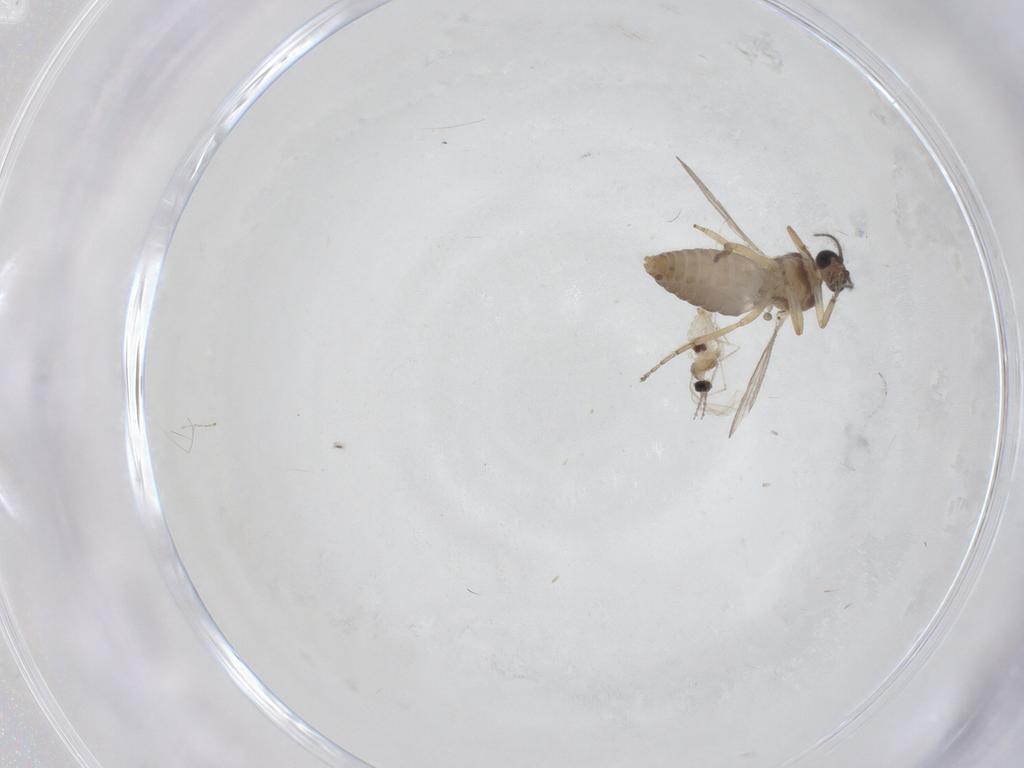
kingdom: Animalia
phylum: Arthropoda
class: Insecta
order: Diptera
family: Cecidomyiidae
